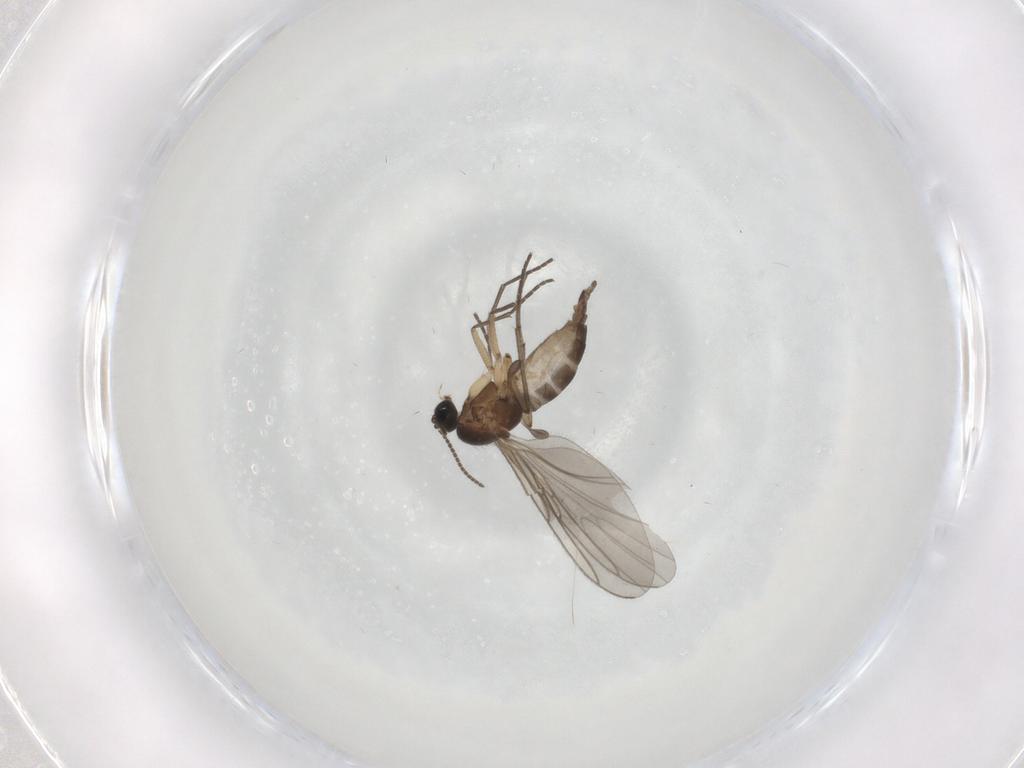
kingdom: Animalia
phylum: Arthropoda
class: Insecta
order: Diptera
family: Sciaridae
